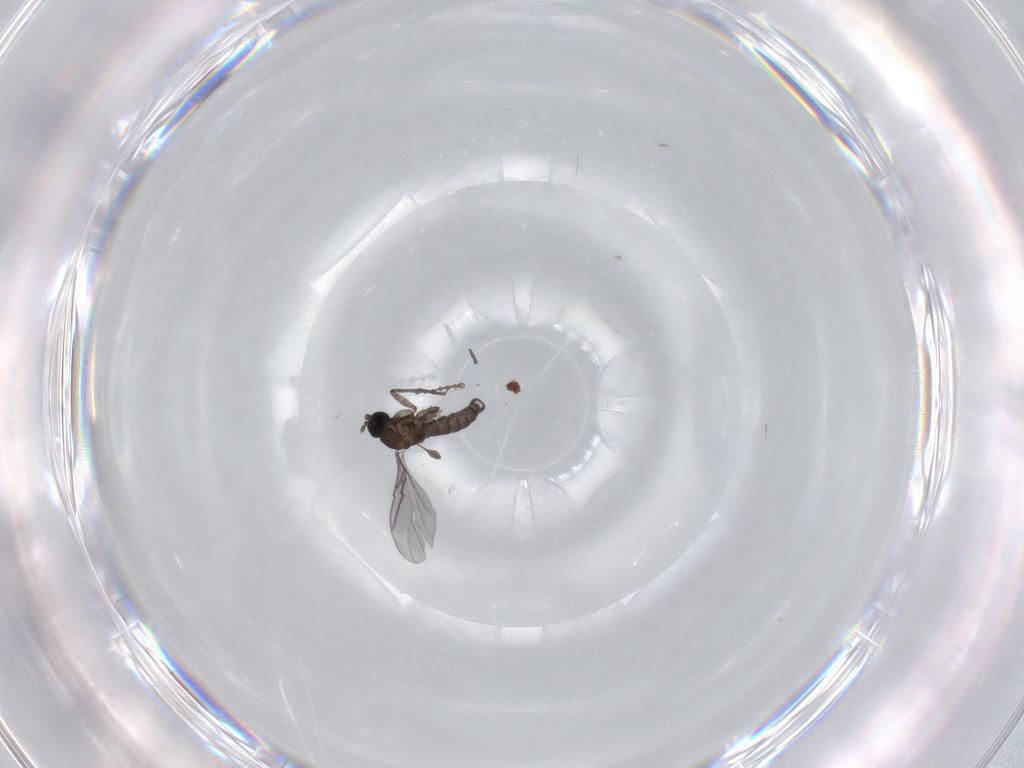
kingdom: Animalia
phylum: Arthropoda
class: Insecta
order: Diptera
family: Sciaridae
